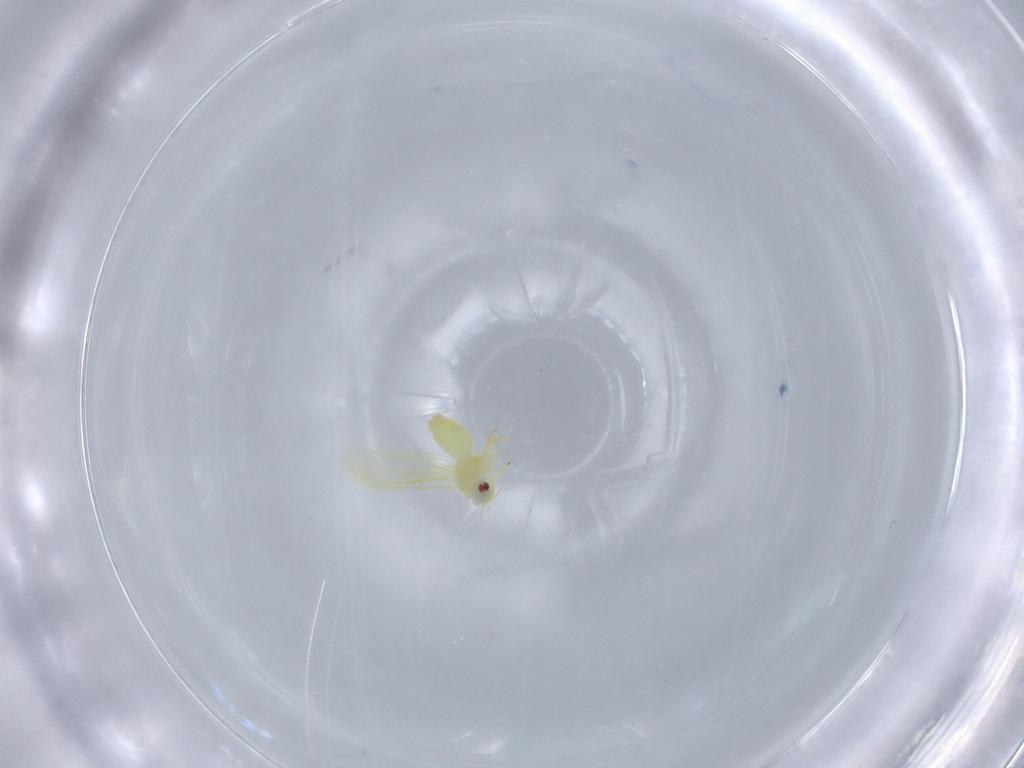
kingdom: Animalia
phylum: Arthropoda
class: Insecta
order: Hemiptera
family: Aleyrodidae
